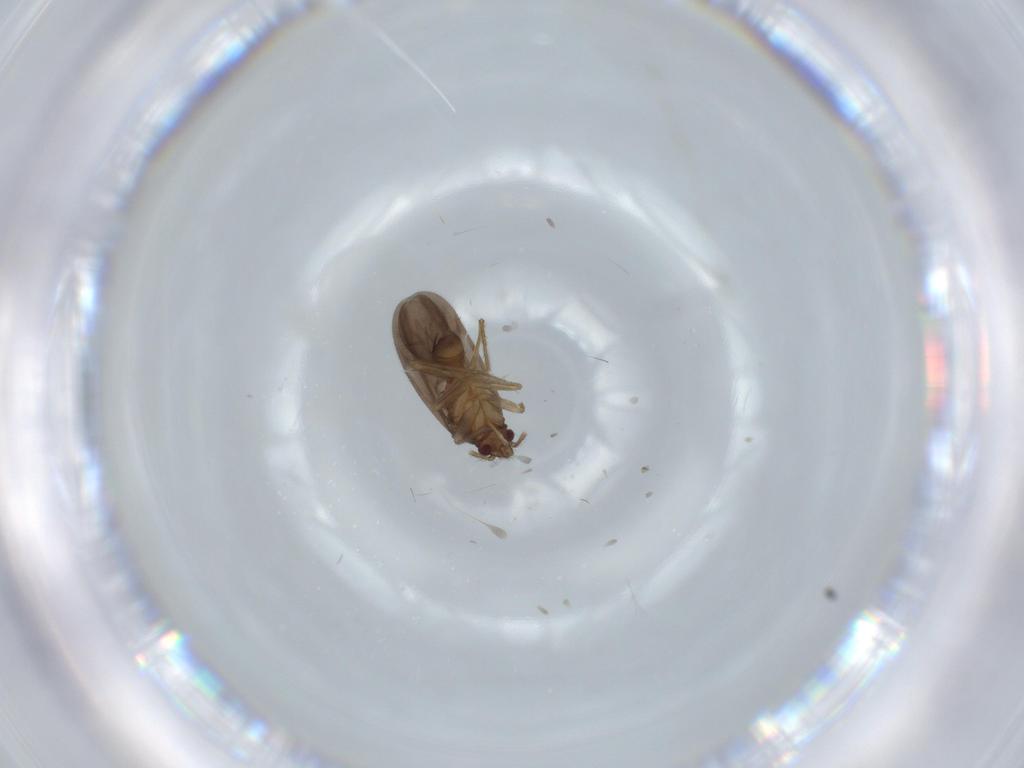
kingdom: Animalia
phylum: Arthropoda
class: Insecta
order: Hemiptera
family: Ceratocombidae
